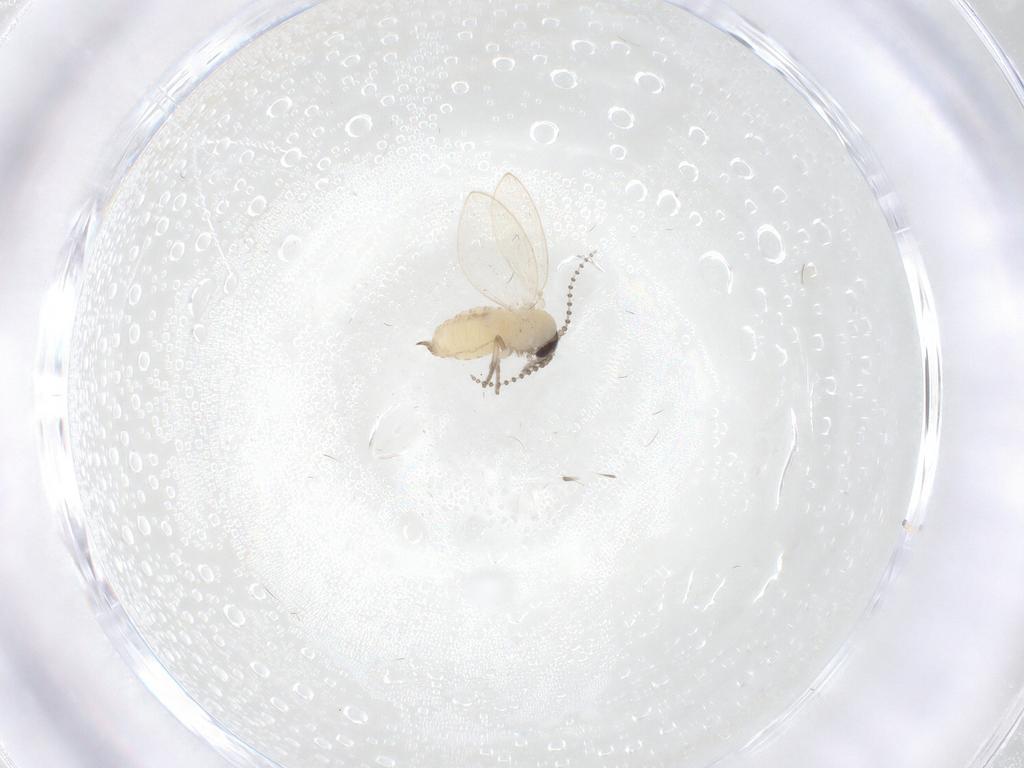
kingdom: Animalia
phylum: Arthropoda
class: Insecta
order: Diptera
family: Psychodidae
